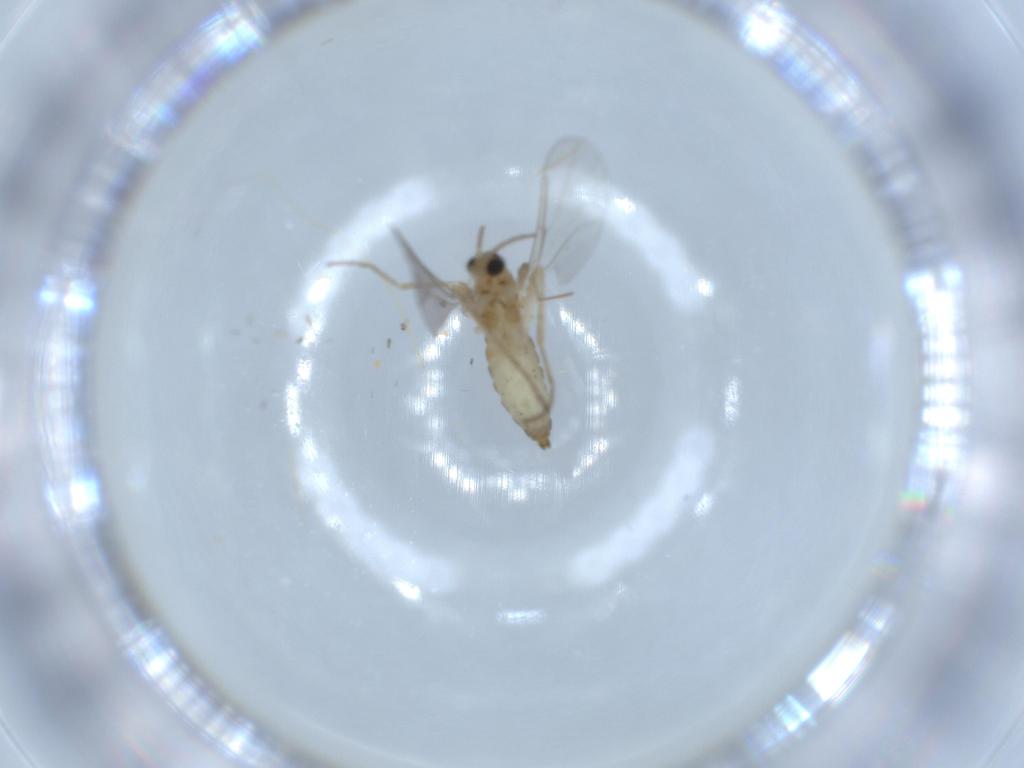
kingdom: Animalia
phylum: Arthropoda
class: Insecta
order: Diptera
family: Cecidomyiidae
